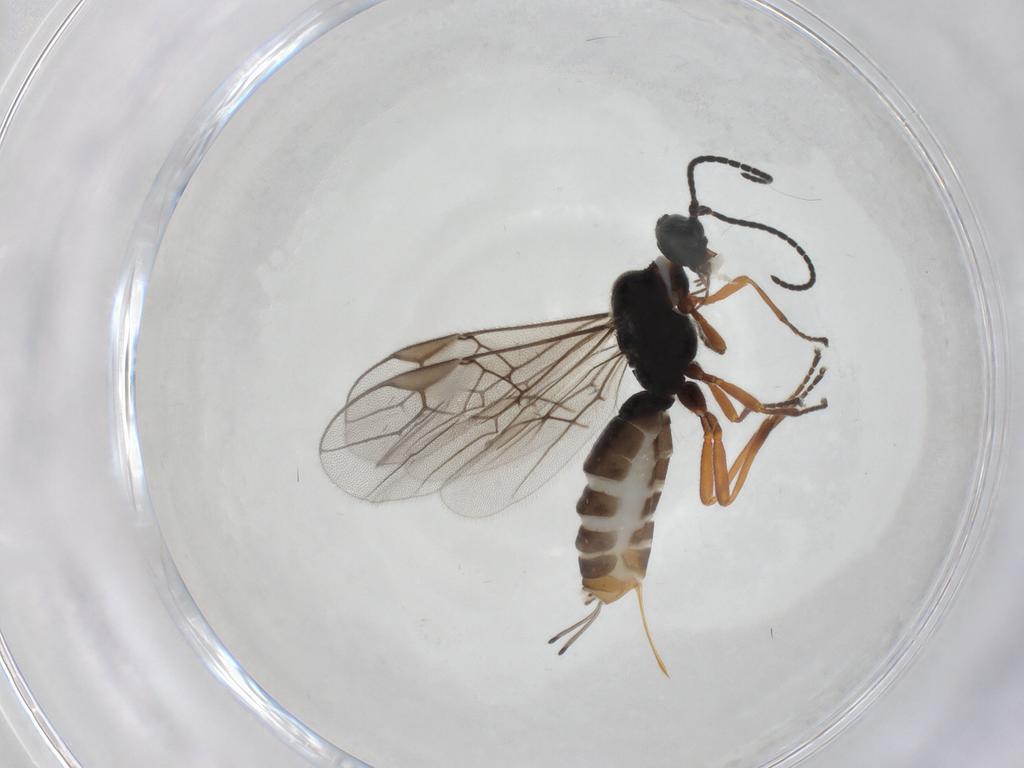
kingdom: Animalia
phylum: Arthropoda
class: Insecta
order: Hymenoptera
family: Braconidae
